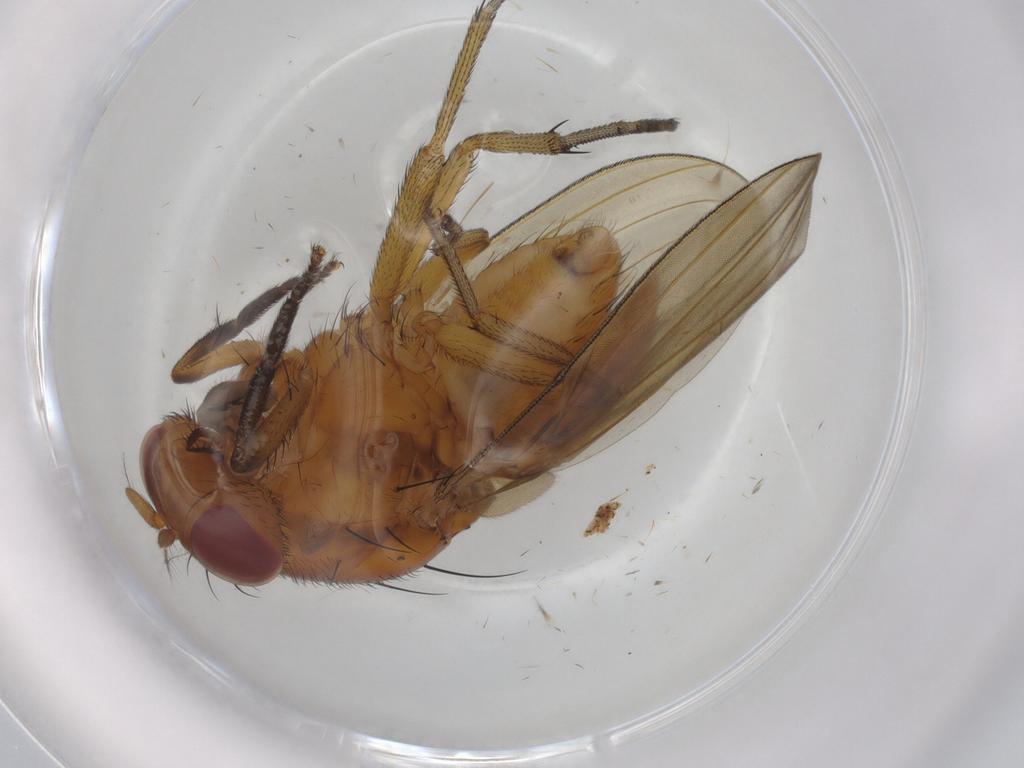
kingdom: Animalia
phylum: Arthropoda
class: Insecta
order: Diptera
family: Lauxaniidae
